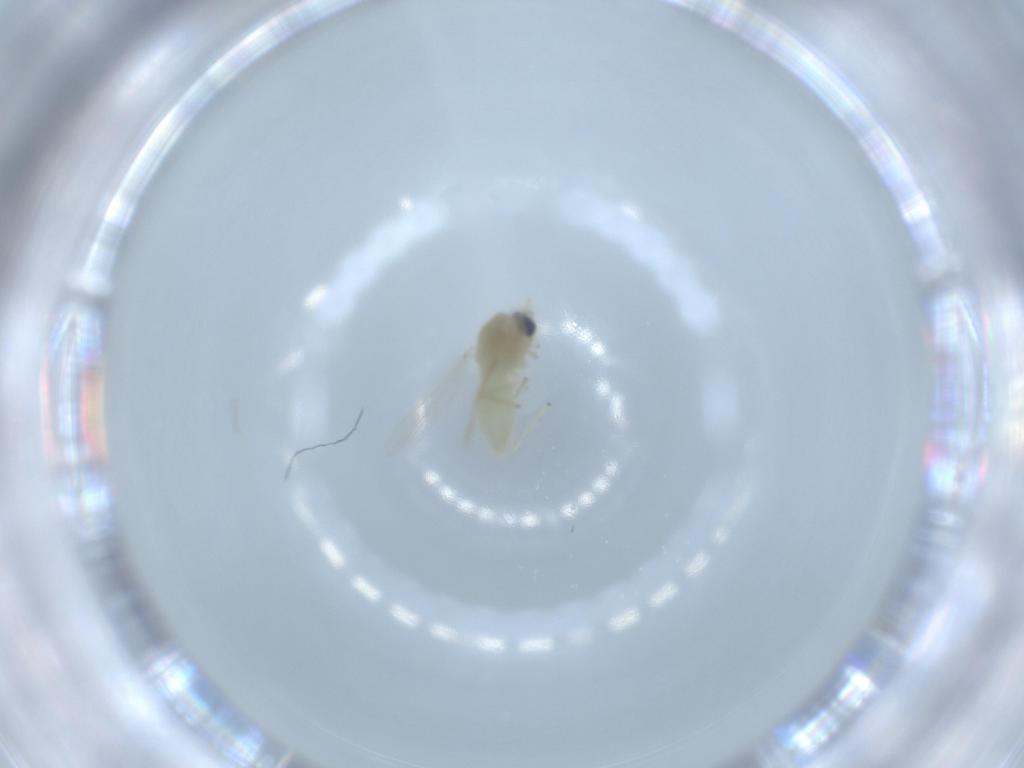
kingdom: Animalia
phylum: Arthropoda
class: Insecta
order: Diptera
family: Chironomidae
